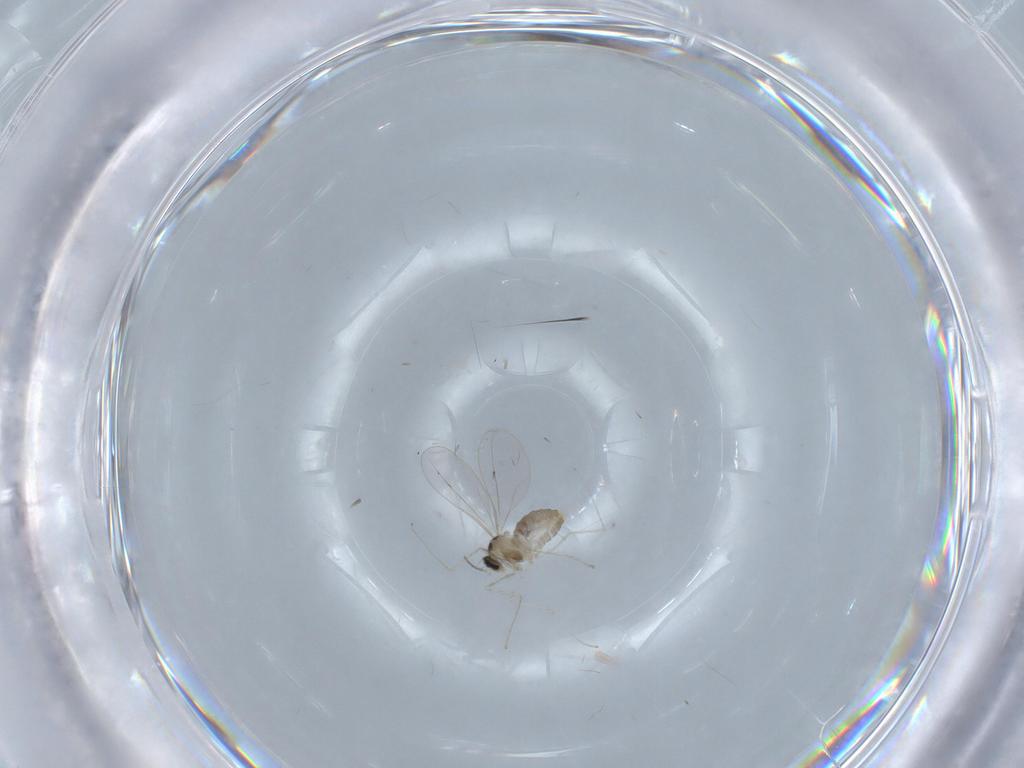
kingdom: Animalia
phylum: Arthropoda
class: Insecta
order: Diptera
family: Cecidomyiidae
